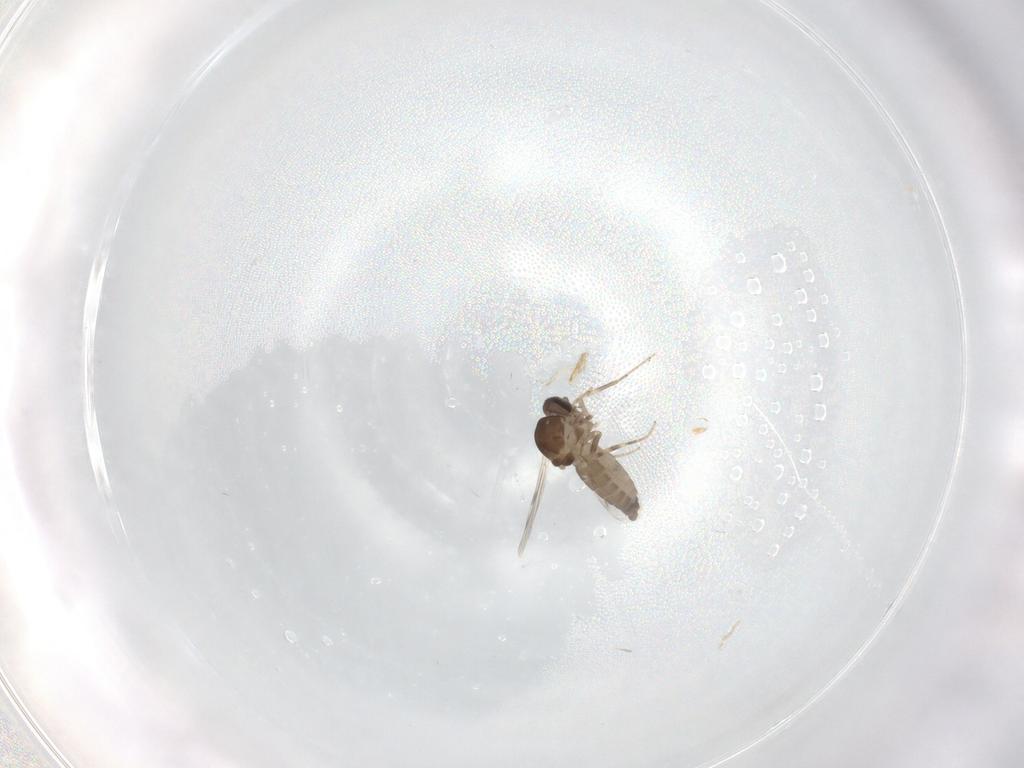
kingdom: Animalia
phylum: Arthropoda
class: Insecta
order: Diptera
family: Ceratopogonidae
